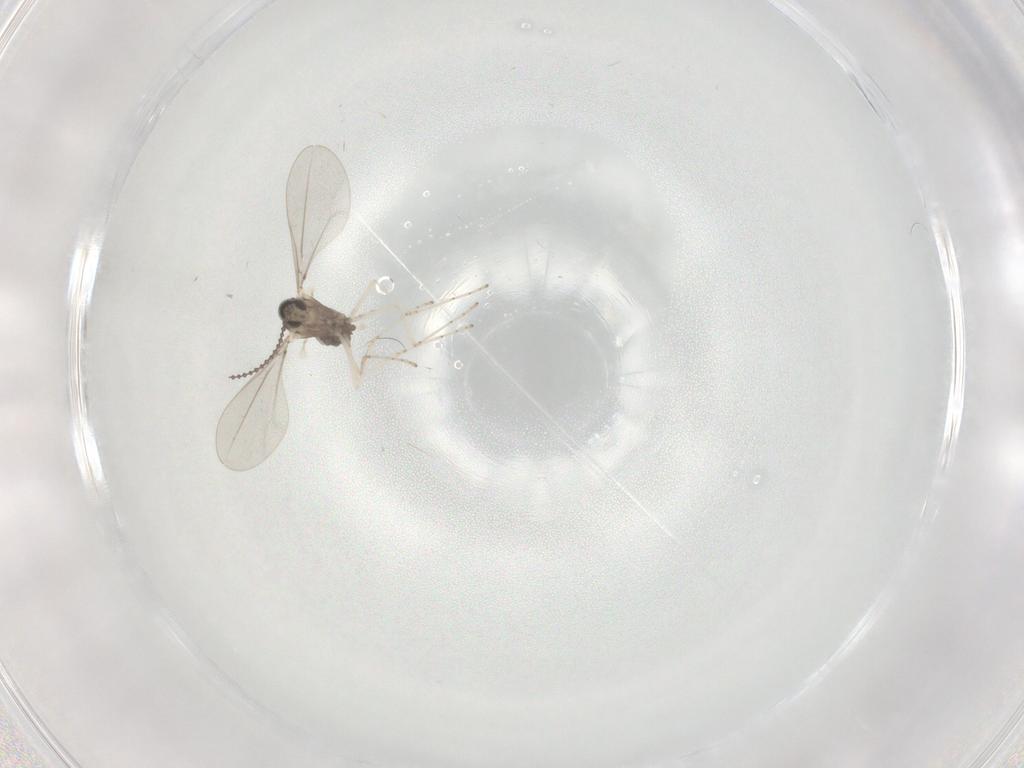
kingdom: Animalia
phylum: Arthropoda
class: Insecta
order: Diptera
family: Cecidomyiidae
